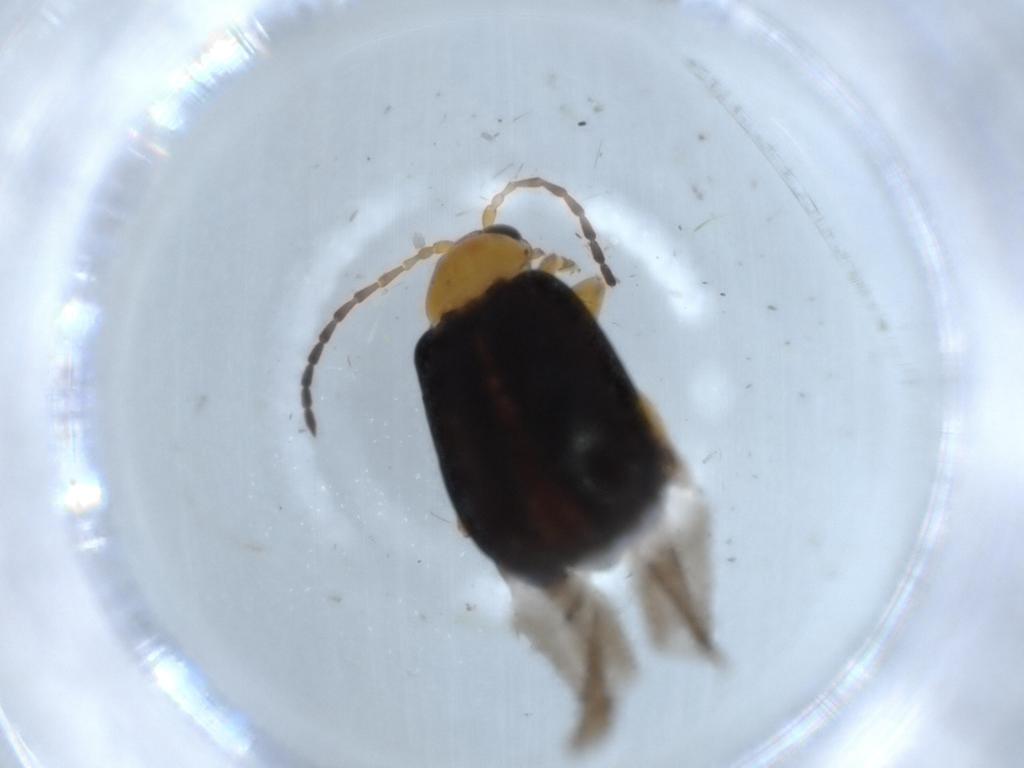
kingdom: Animalia
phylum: Arthropoda
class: Insecta
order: Coleoptera
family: Chrysomelidae
